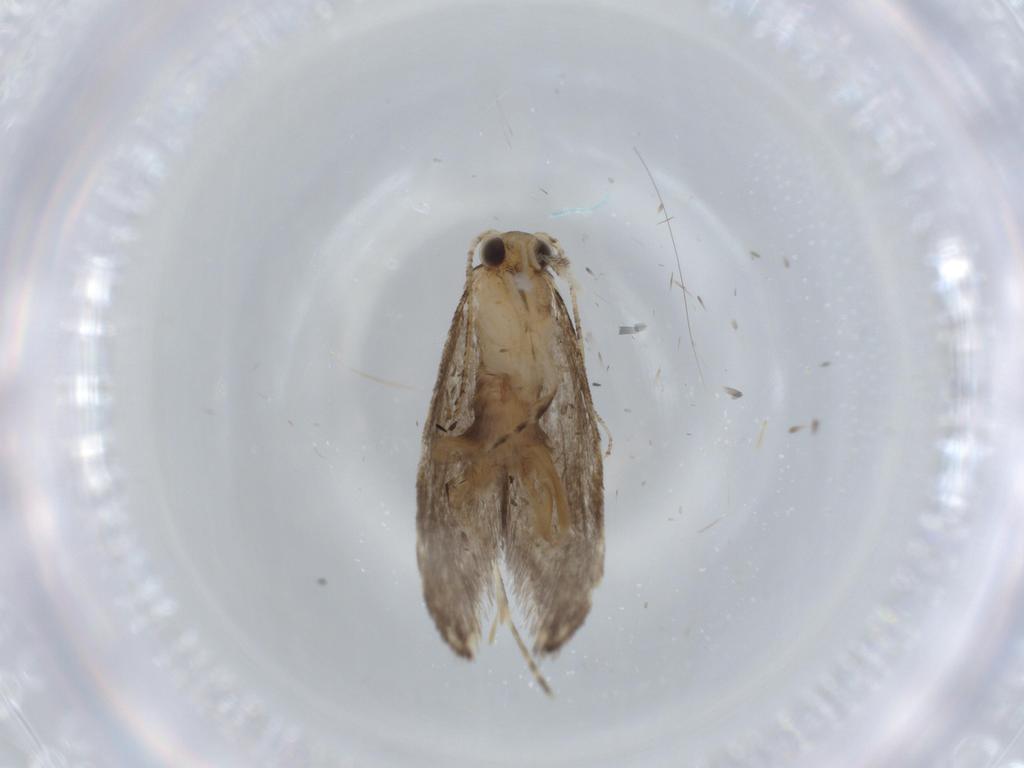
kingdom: Animalia
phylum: Arthropoda
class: Insecta
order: Lepidoptera
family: Tineidae
